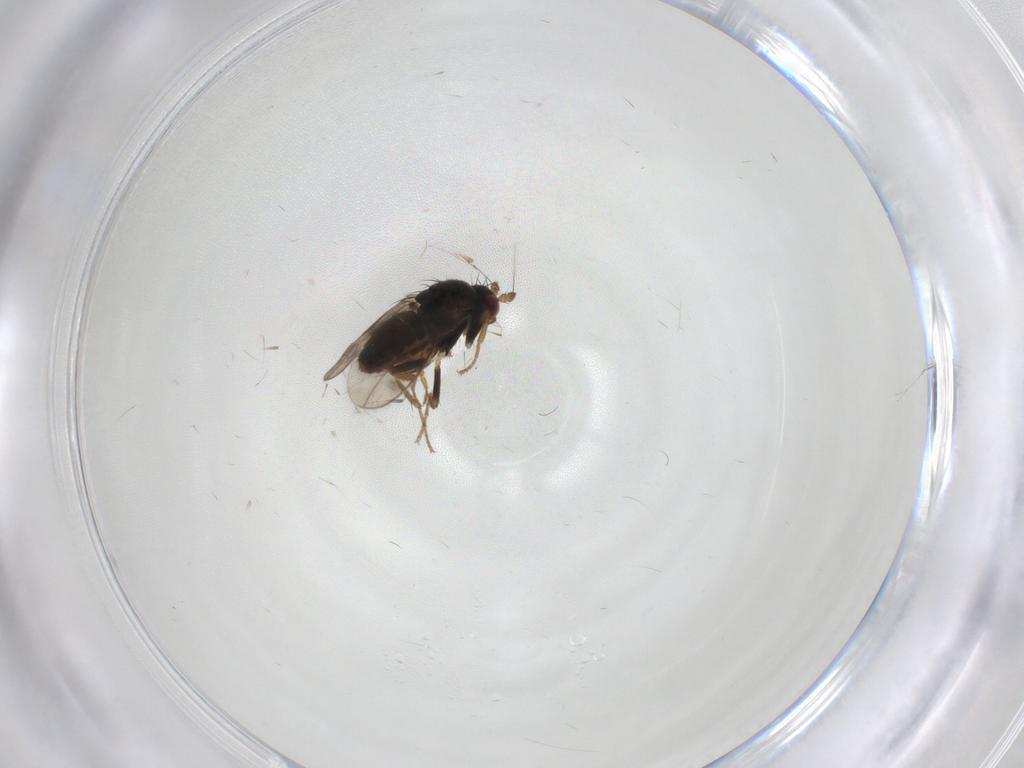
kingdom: Animalia
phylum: Arthropoda
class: Insecta
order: Diptera
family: Sphaeroceridae
